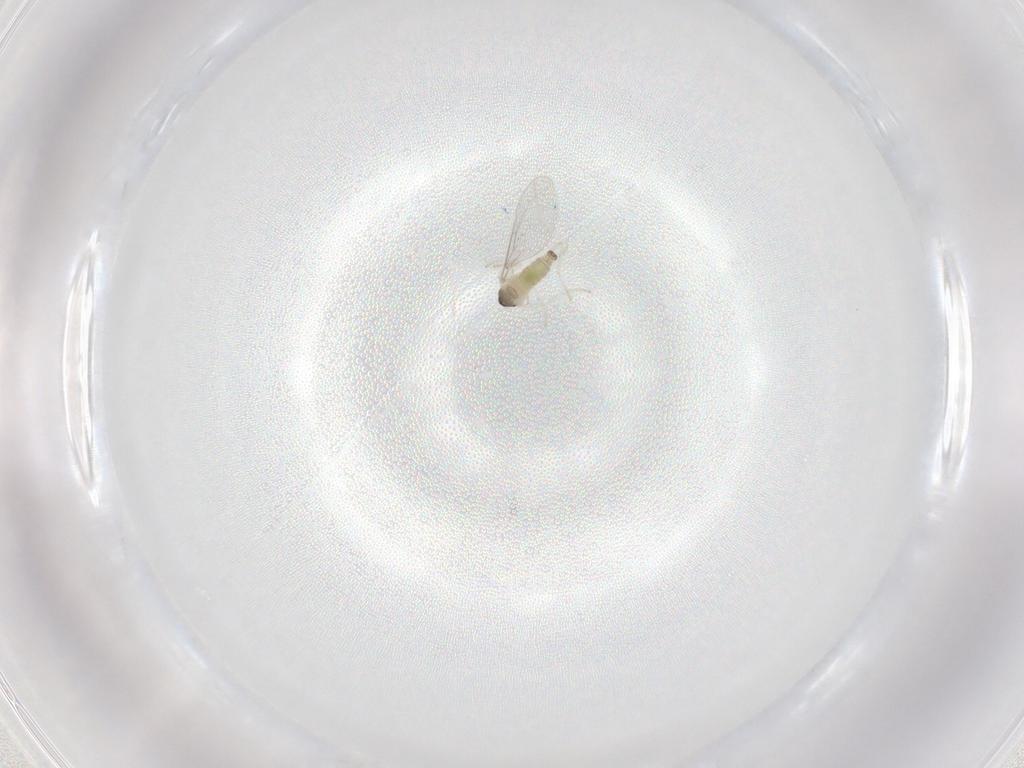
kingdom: Animalia
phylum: Arthropoda
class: Insecta
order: Diptera
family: Cecidomyiidae
